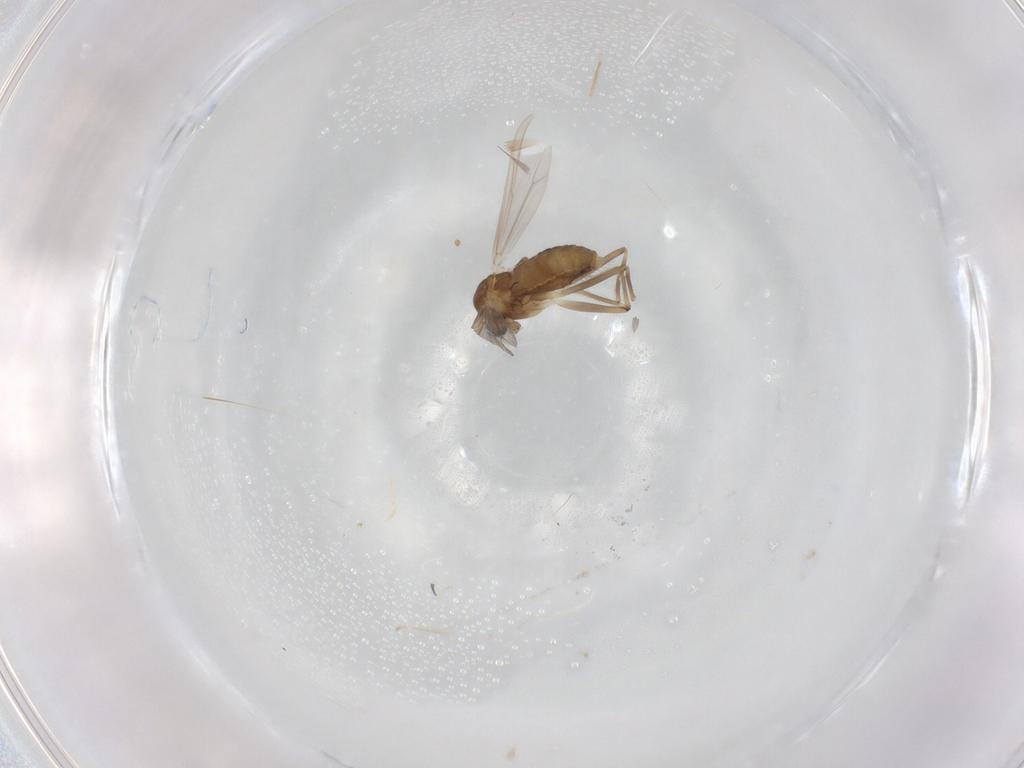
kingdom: Animalia
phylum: Arthropoda
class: Insecta
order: Diptera
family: Chironomidae
